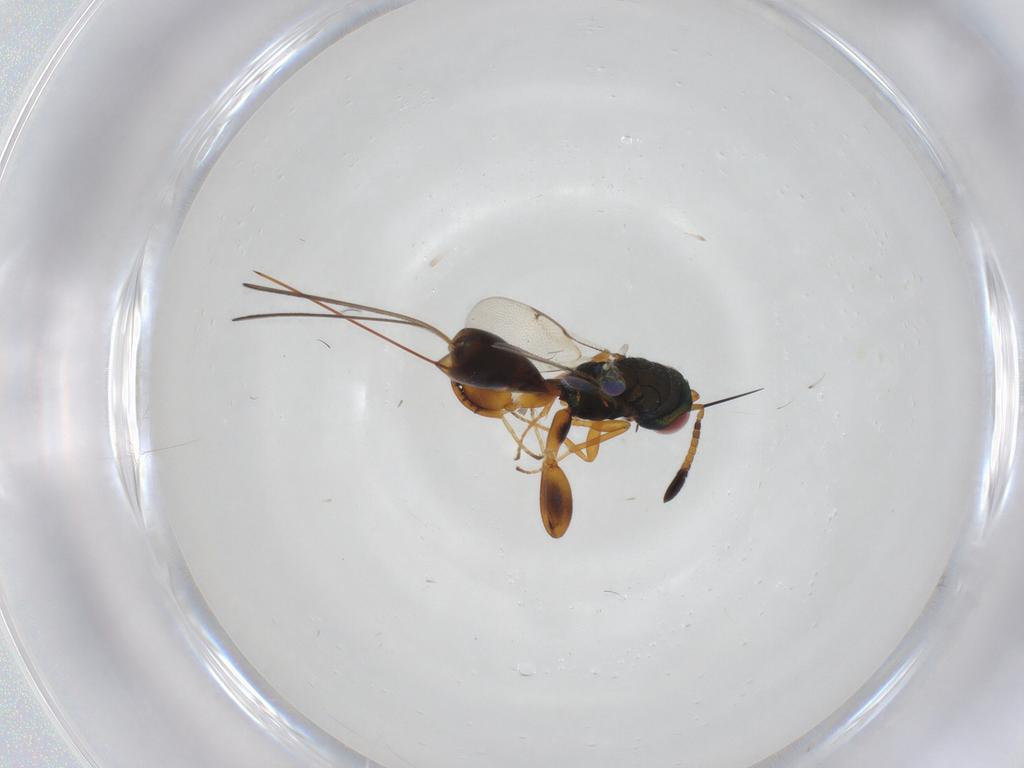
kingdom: Animalia
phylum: Arthropoda
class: Insecta
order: Hymenoptera
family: Torymidae
